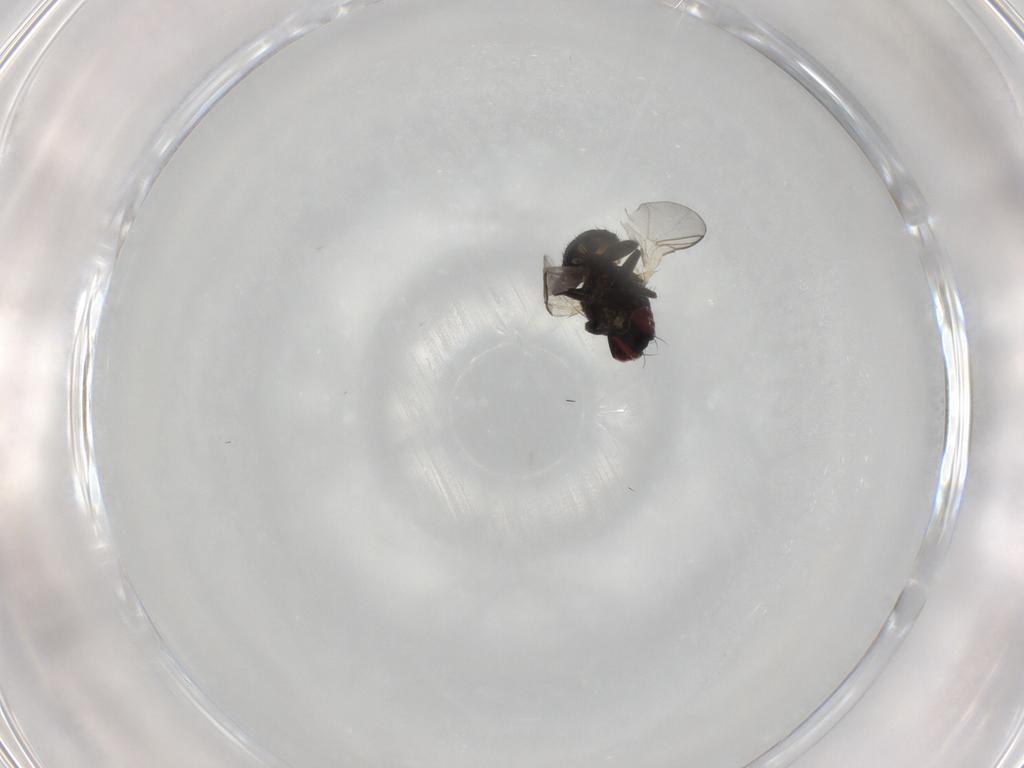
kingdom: Animalia
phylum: Arthropoda
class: Insecta
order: Diptera
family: Agromyzidae
